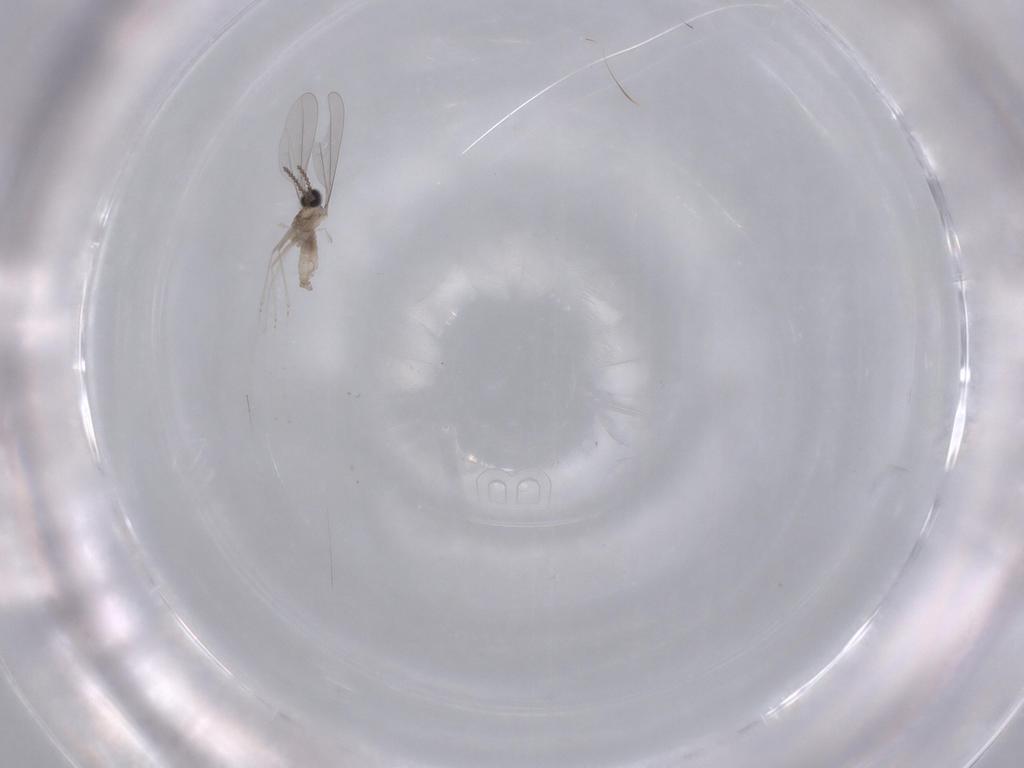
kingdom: Animalia
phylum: Arthropoda
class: Insecta
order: Diptera
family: Cecidomyiidae
